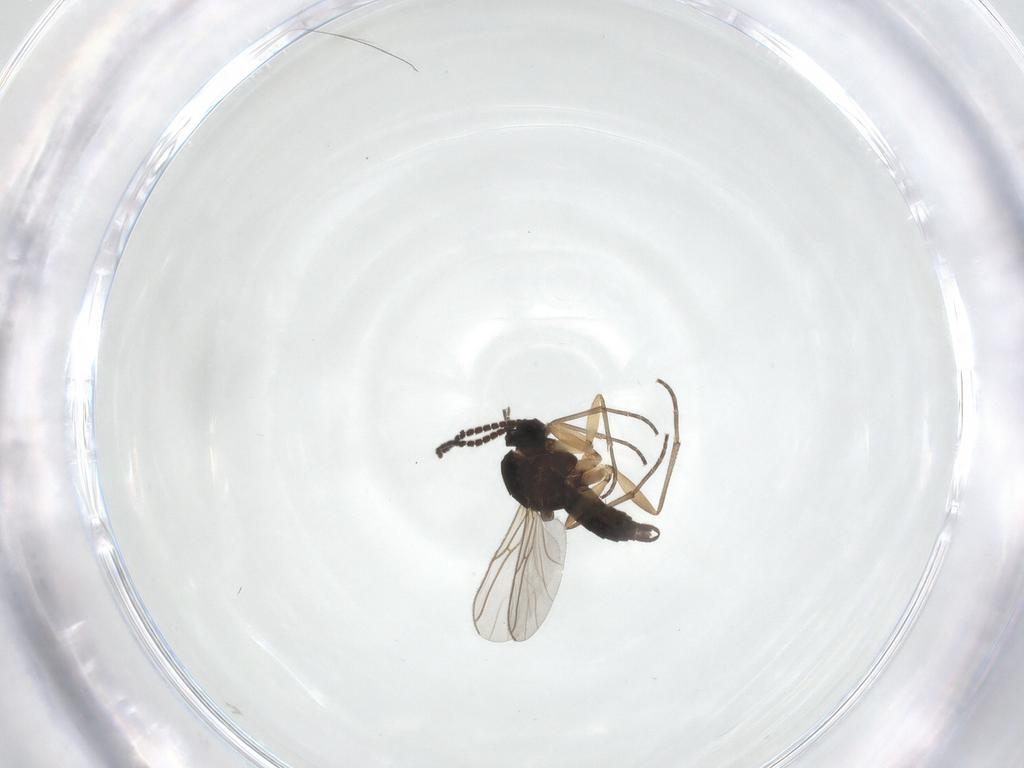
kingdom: Animalia
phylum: Arthropoda
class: Insecta
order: Diptera
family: Sciaridae
